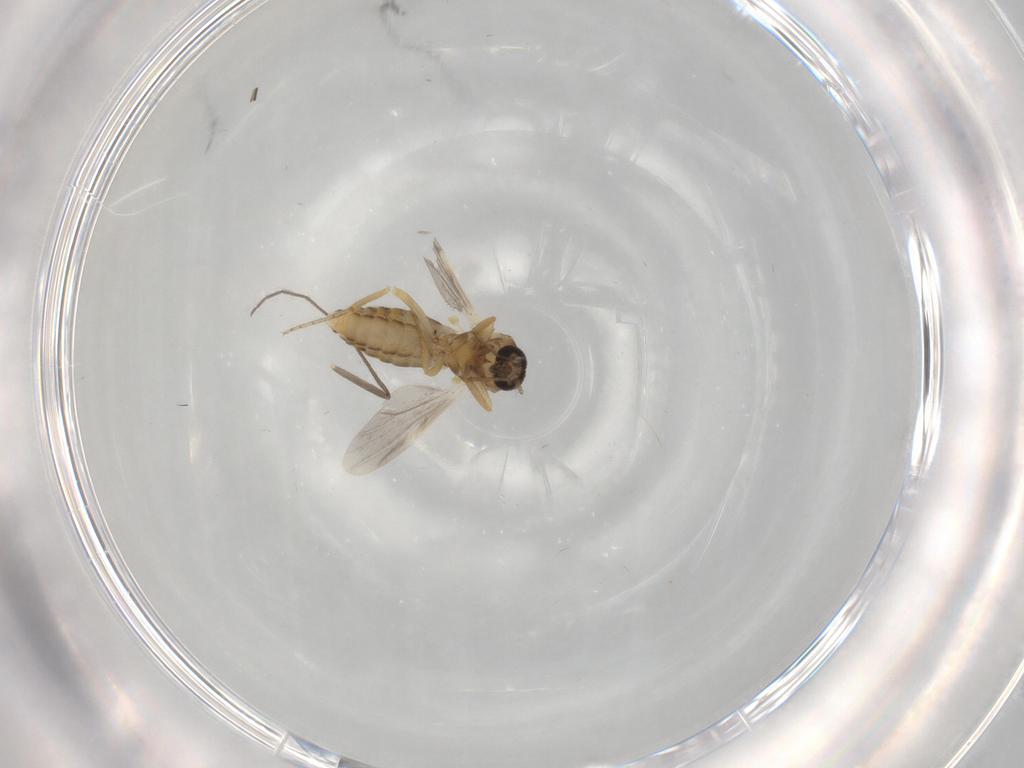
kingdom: Animalia
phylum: Arthropoda
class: Insecta
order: Diptera
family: Ceratopogonidae
